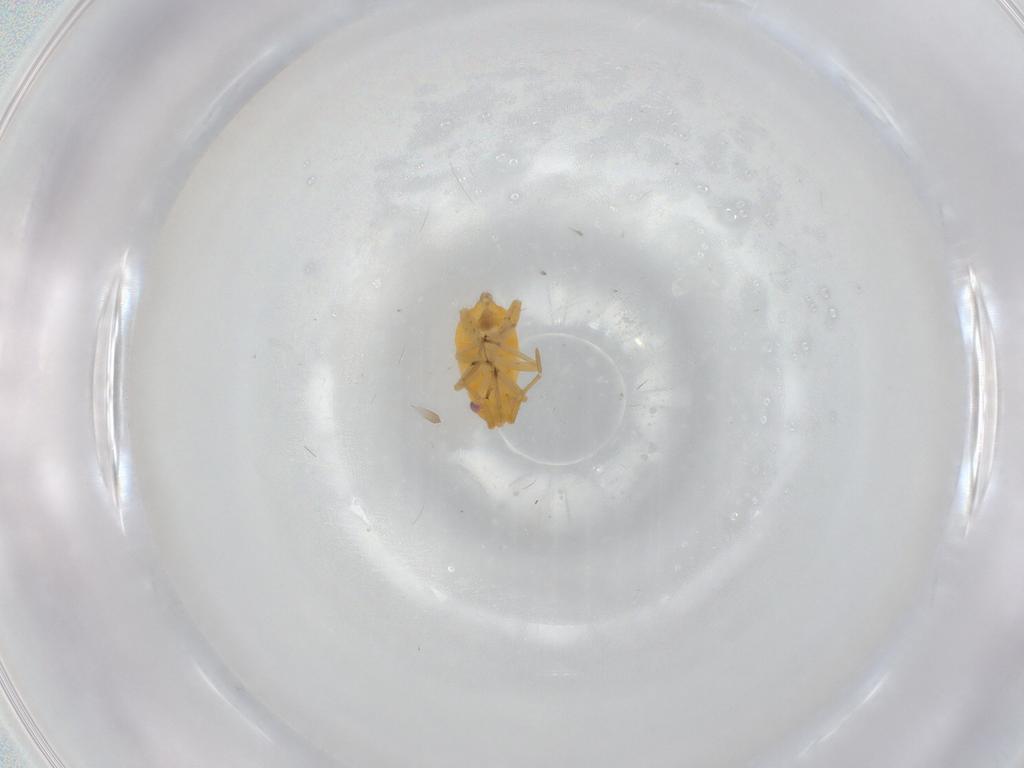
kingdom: Animalia
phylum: Arthropoda
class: Insecta
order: Hemiptera
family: Miridae
